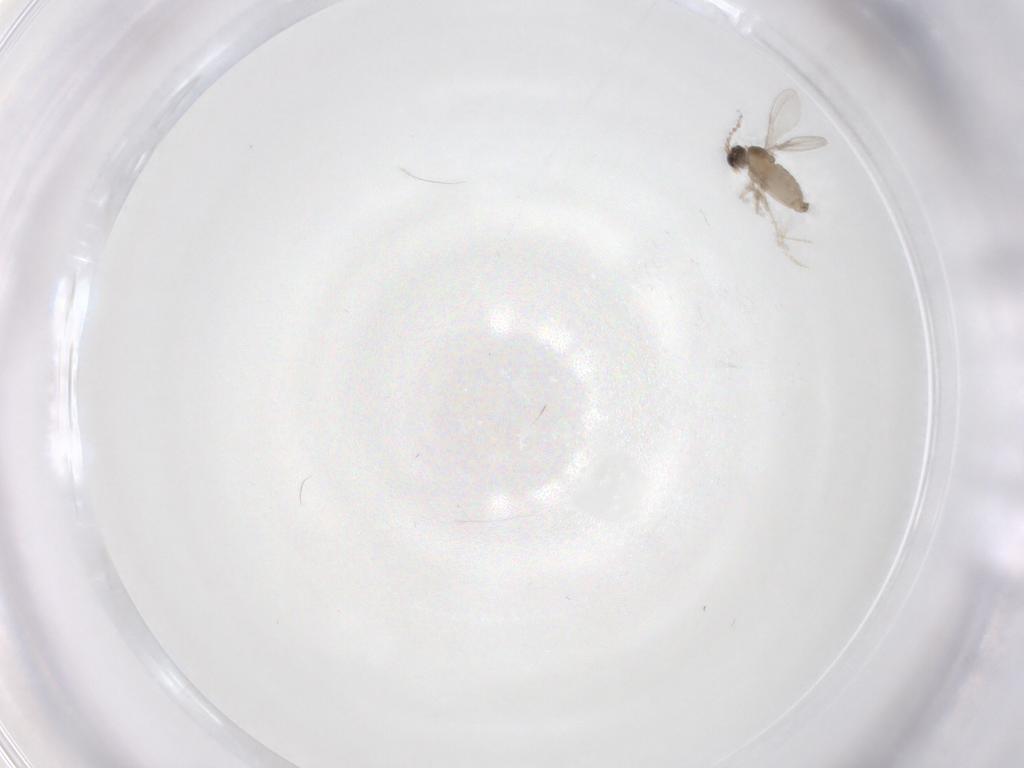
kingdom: Animalia
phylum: Arthropoda
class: Insecta
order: Diptera
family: Cecidomyiidae
